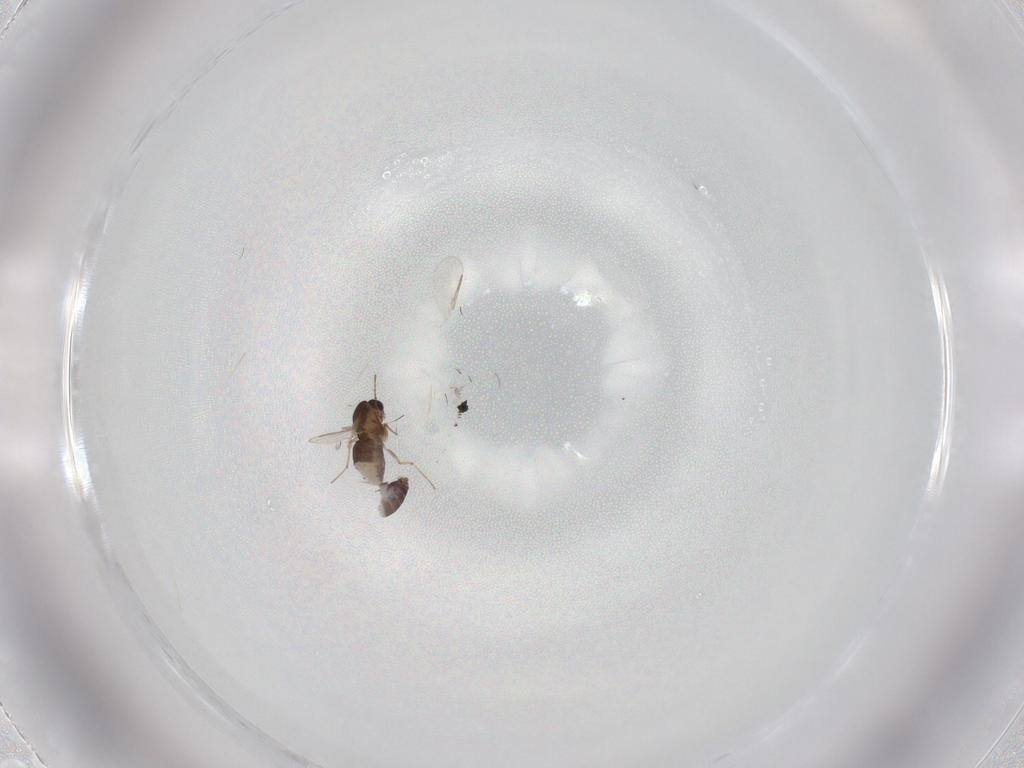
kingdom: Animalia
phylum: Arthropoda
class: Insecta
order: Diptera
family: Chironomidae
